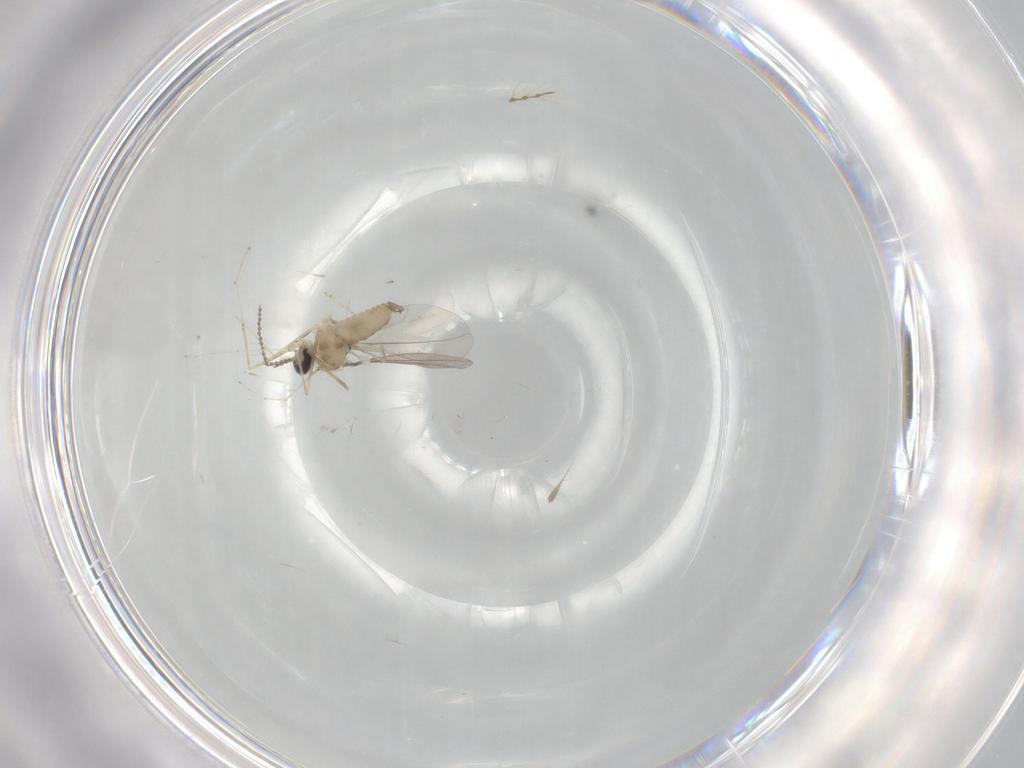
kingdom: Animalia
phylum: Arthropoda
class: Insecta
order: Diptera
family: Cecidomyiidae
